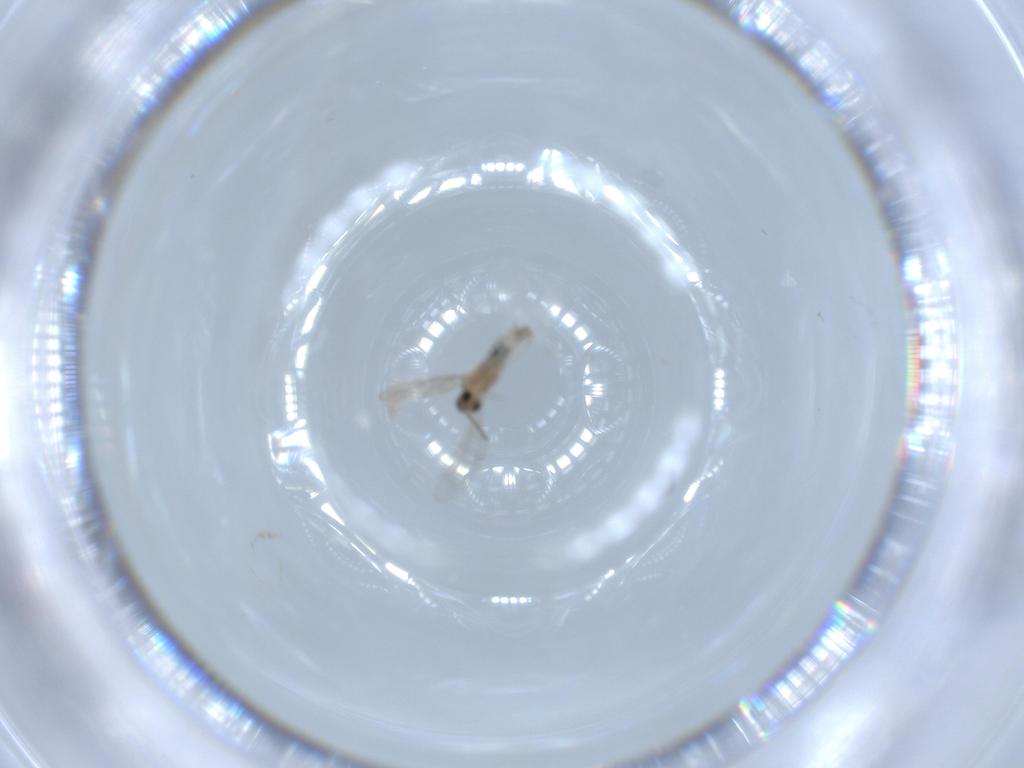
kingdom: Animalia
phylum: Arthropoda
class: Insecta
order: Diptera
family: Cecidomyiidae
